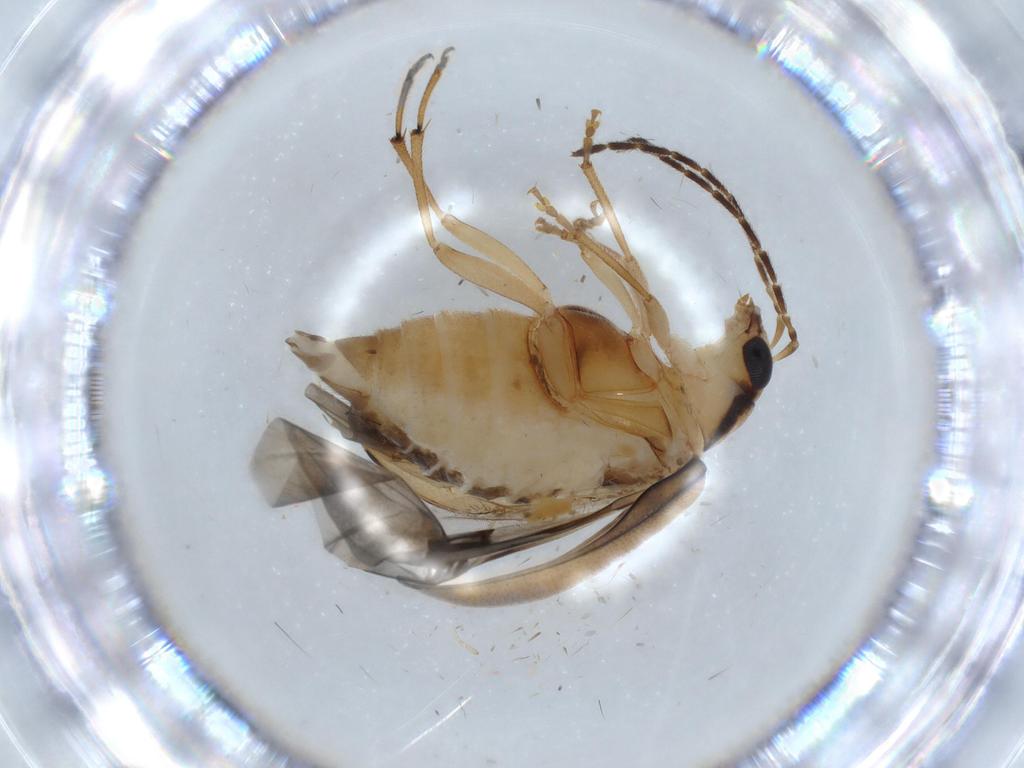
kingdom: Animalia
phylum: Arthropoda
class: Insecta
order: Coleoptera
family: Chrysomelidae
